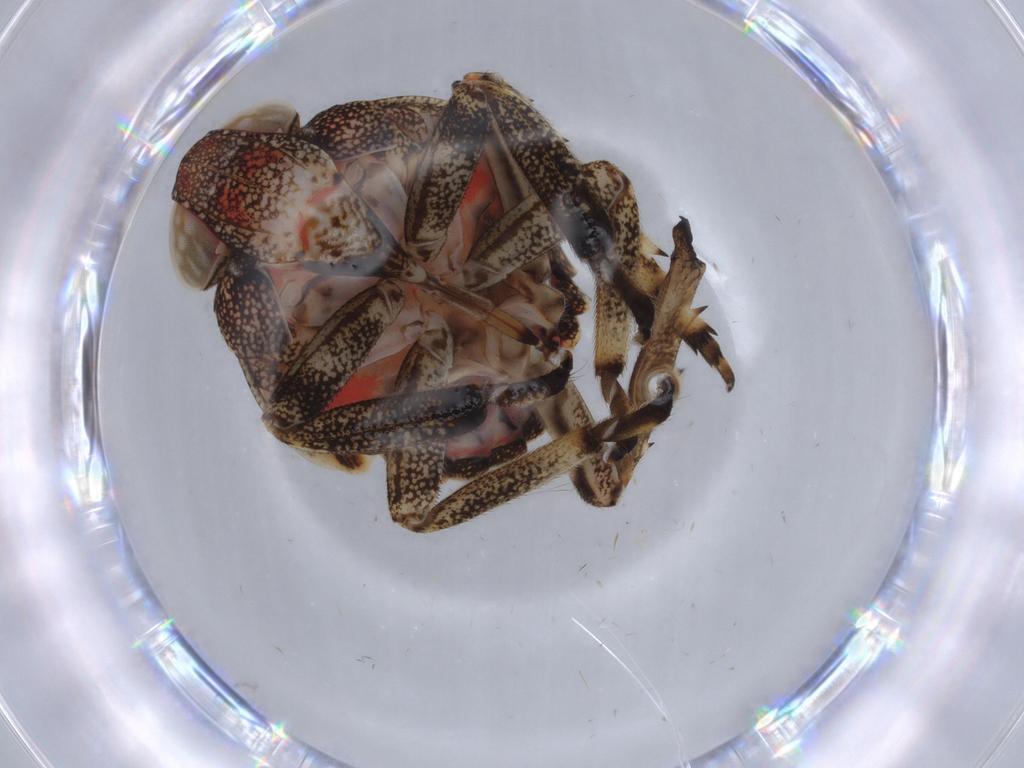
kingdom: Animalia
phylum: Arthropoda
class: Insecta
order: Hemiptera
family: Issidae
